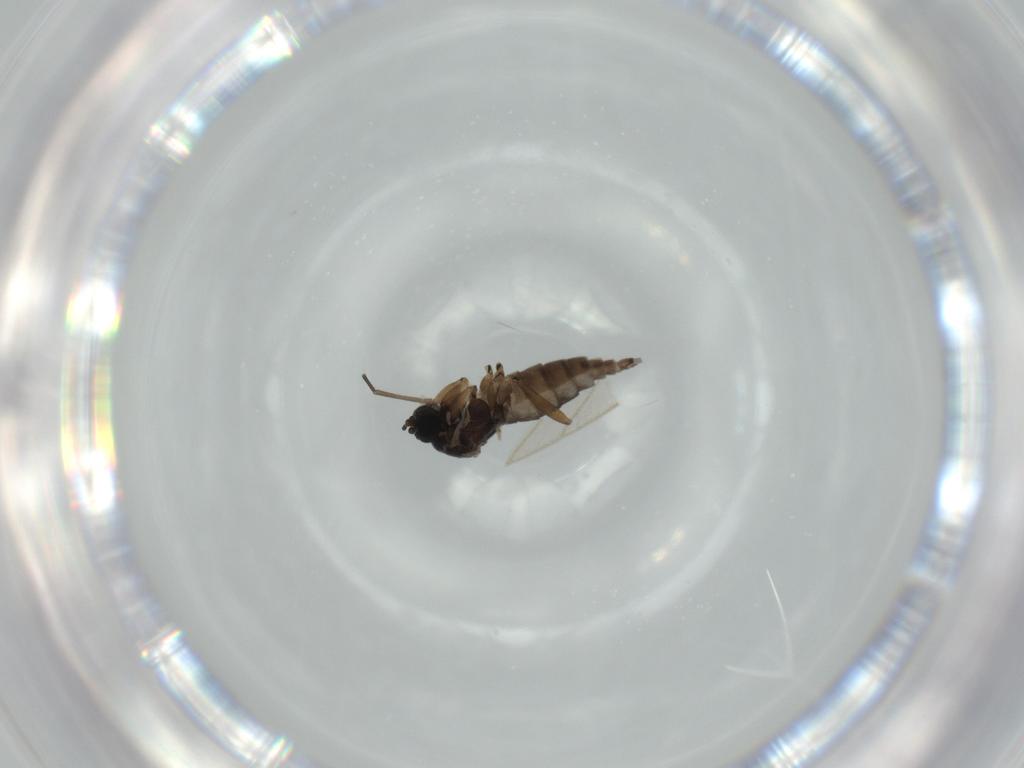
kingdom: Animalia
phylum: Arthropoda
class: Insecta
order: Diptera
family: Sciaridae
